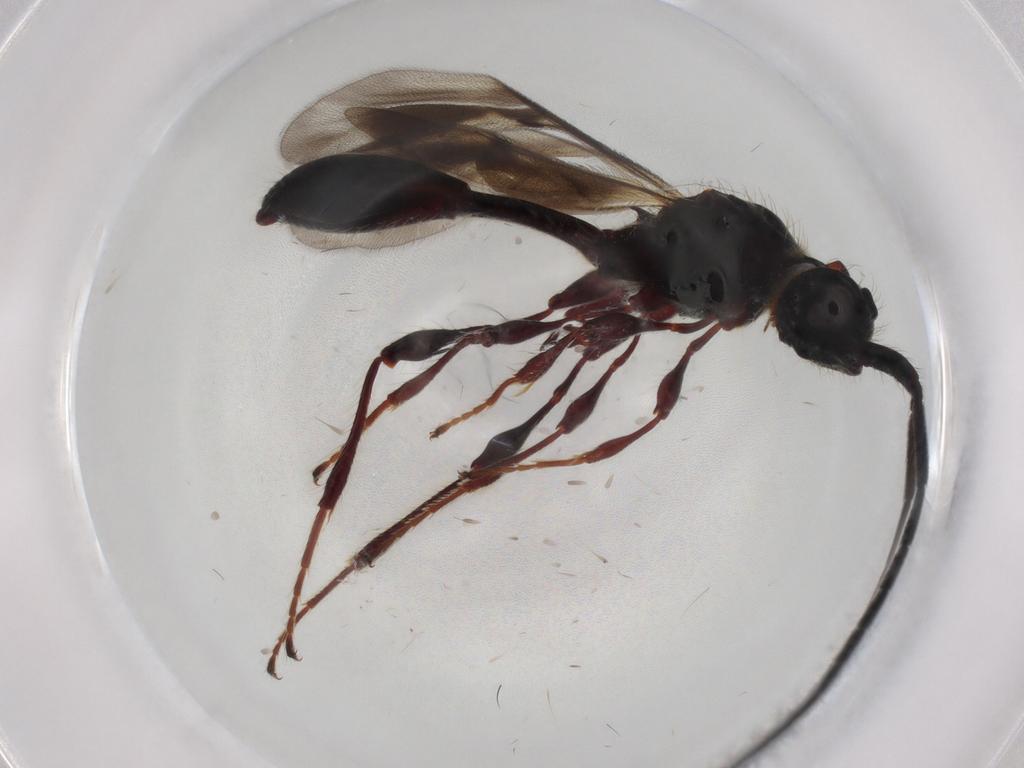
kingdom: Animalia
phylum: Arthropoda
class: Insecta
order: Hymenoptera
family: Diapriidae
